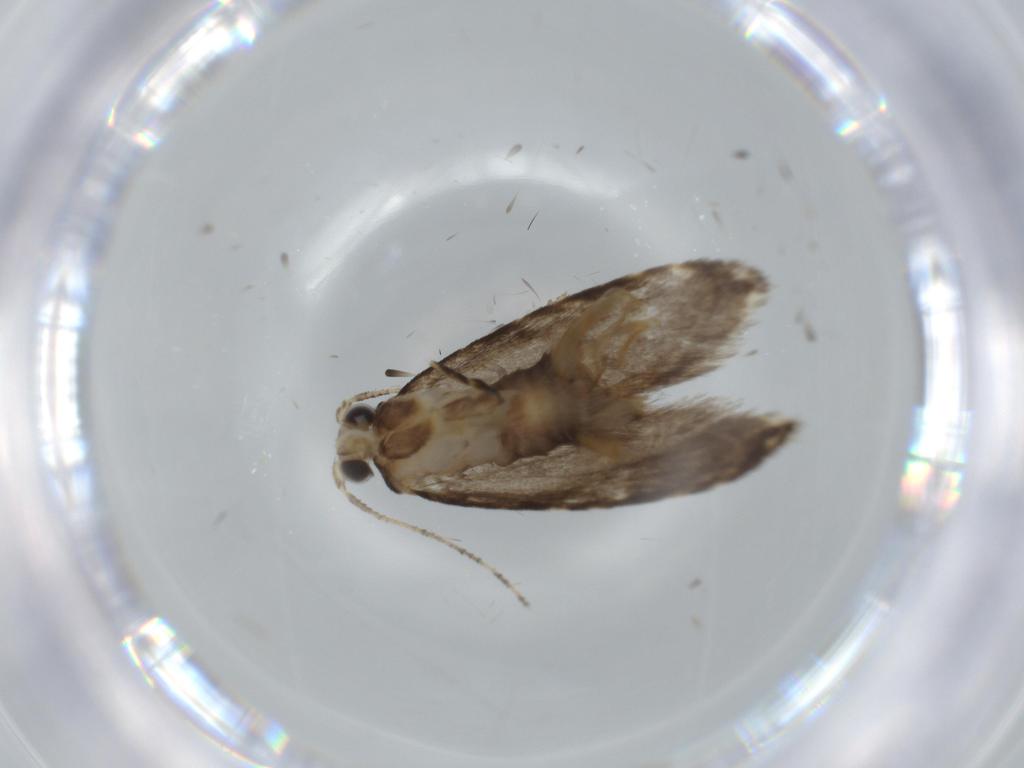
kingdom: Animalia
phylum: Arthropoda
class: Insecta
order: Lepidoptera
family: Tineidae
